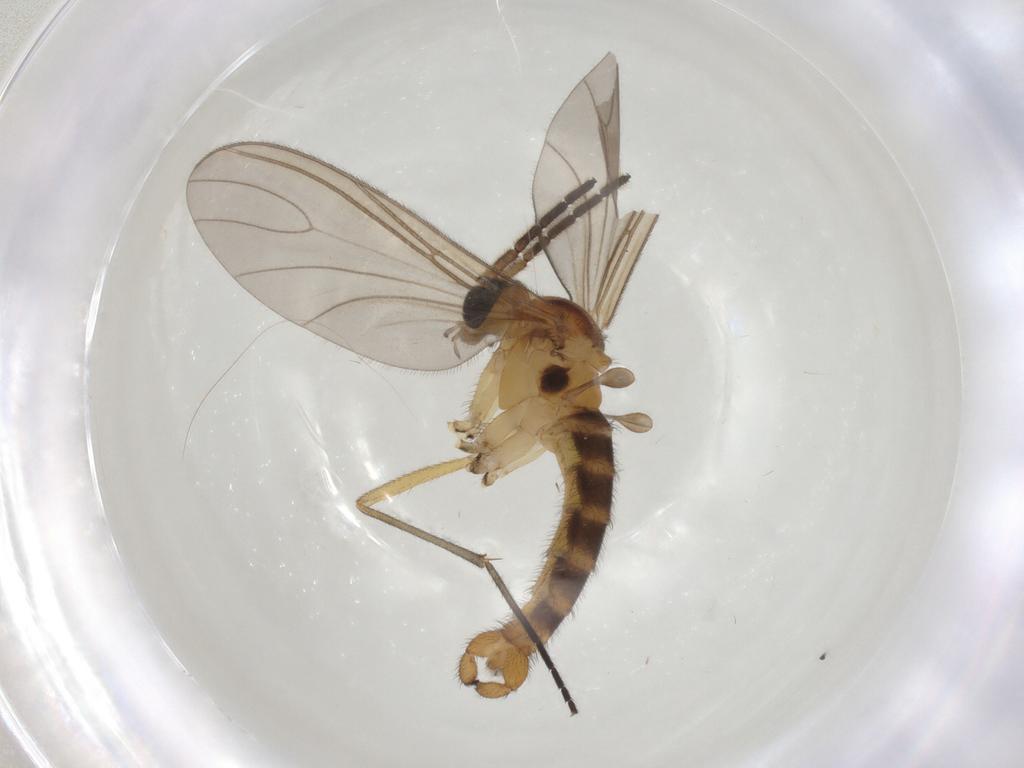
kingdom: Animalia
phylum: Arthropoda
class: Insecta
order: Diptera
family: Sciaridae
